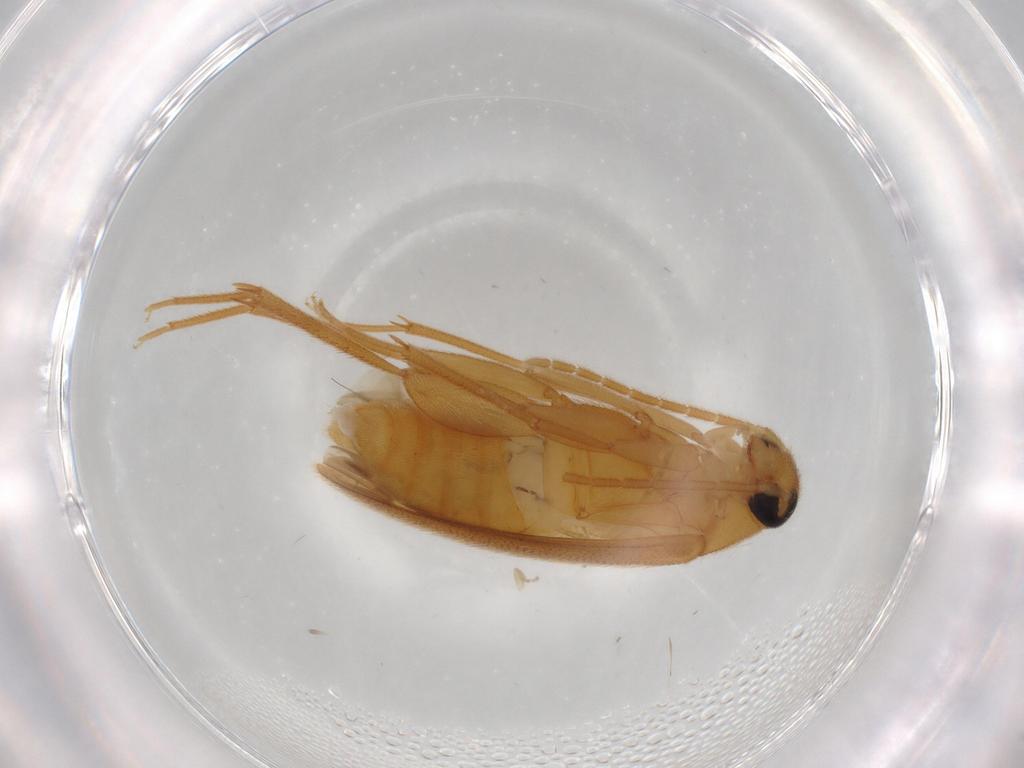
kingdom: Animalia
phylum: Arthropoda
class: Insecta
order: Coleoptera
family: Scraptiidae
